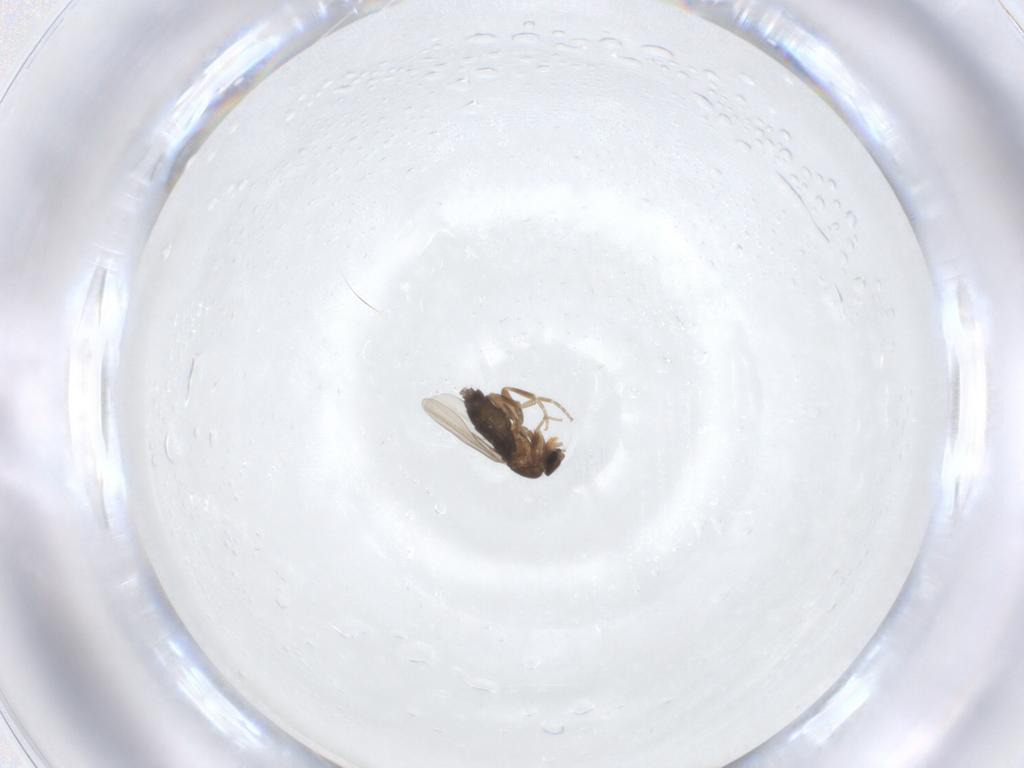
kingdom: Animalia
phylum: Arthropoda
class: Insecta
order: Diptera
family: Phoridae
